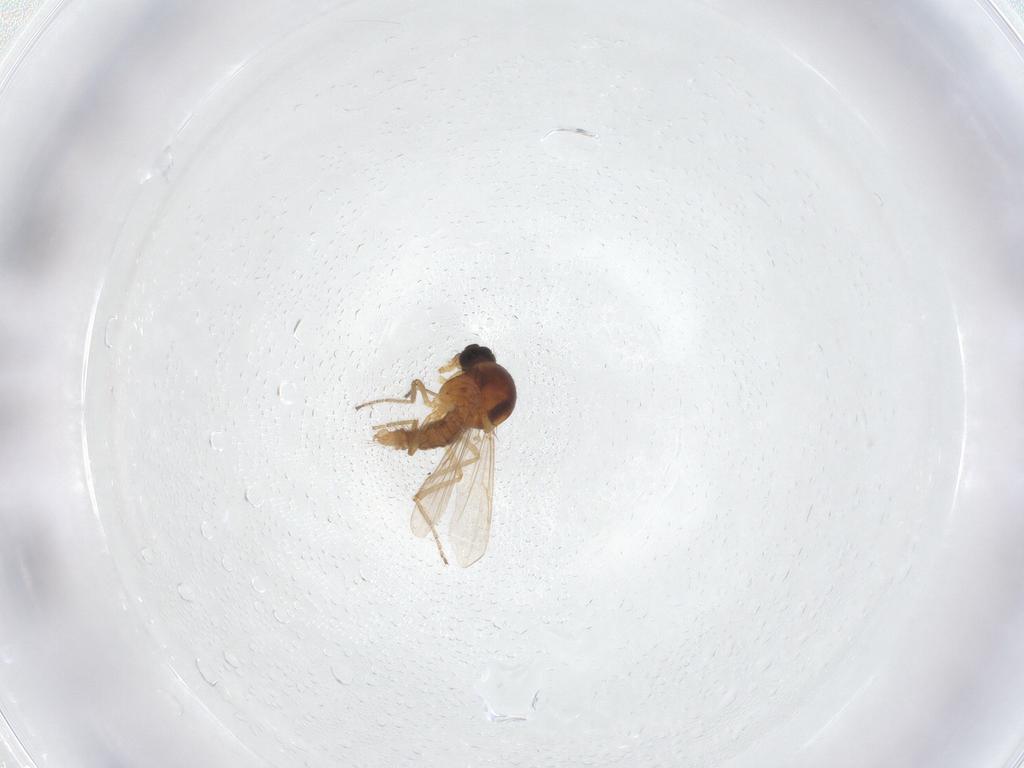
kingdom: Animalia
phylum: Arthropoda
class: Insecta
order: Diptera
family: Ceratopogonidae
